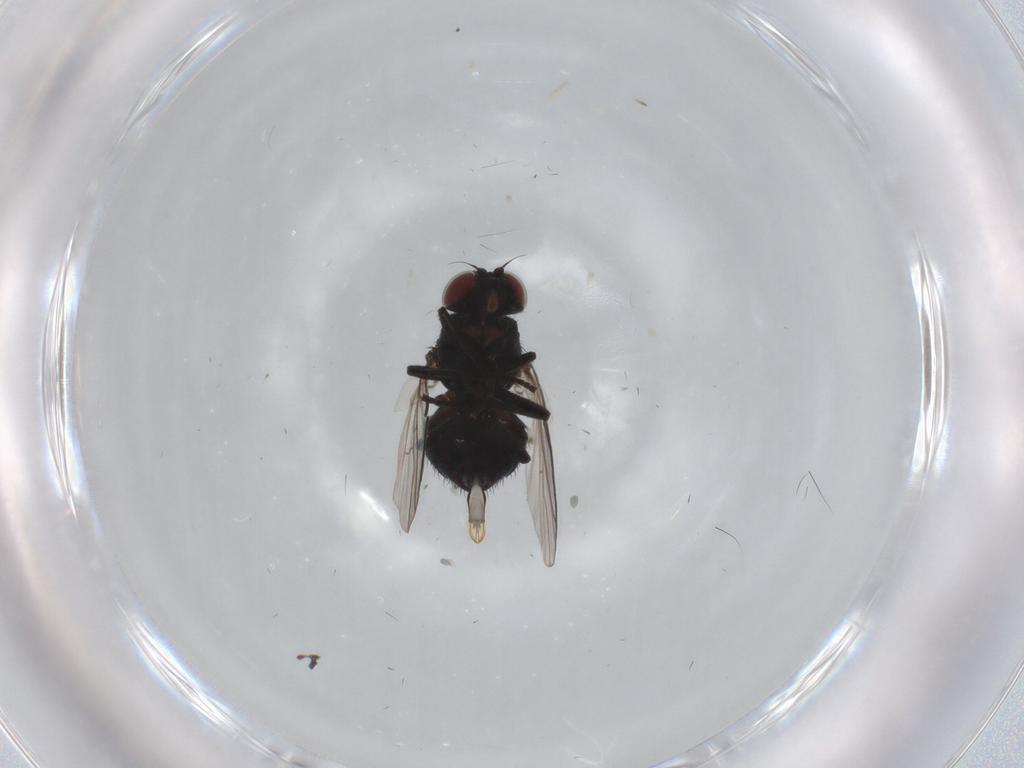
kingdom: Animalia
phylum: Arthropoda
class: Insecta
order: Diptera
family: Agromyzidae
